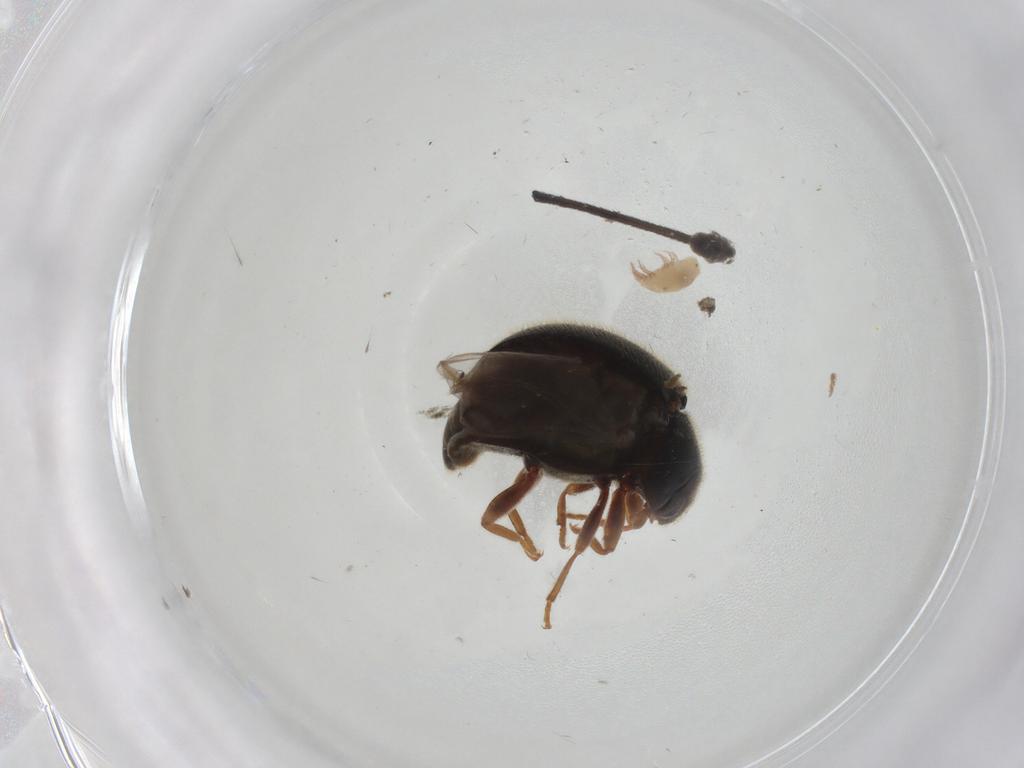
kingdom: Animalia
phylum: Arthropoda
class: Insecta
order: Coleoptera
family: Coccinellidae
